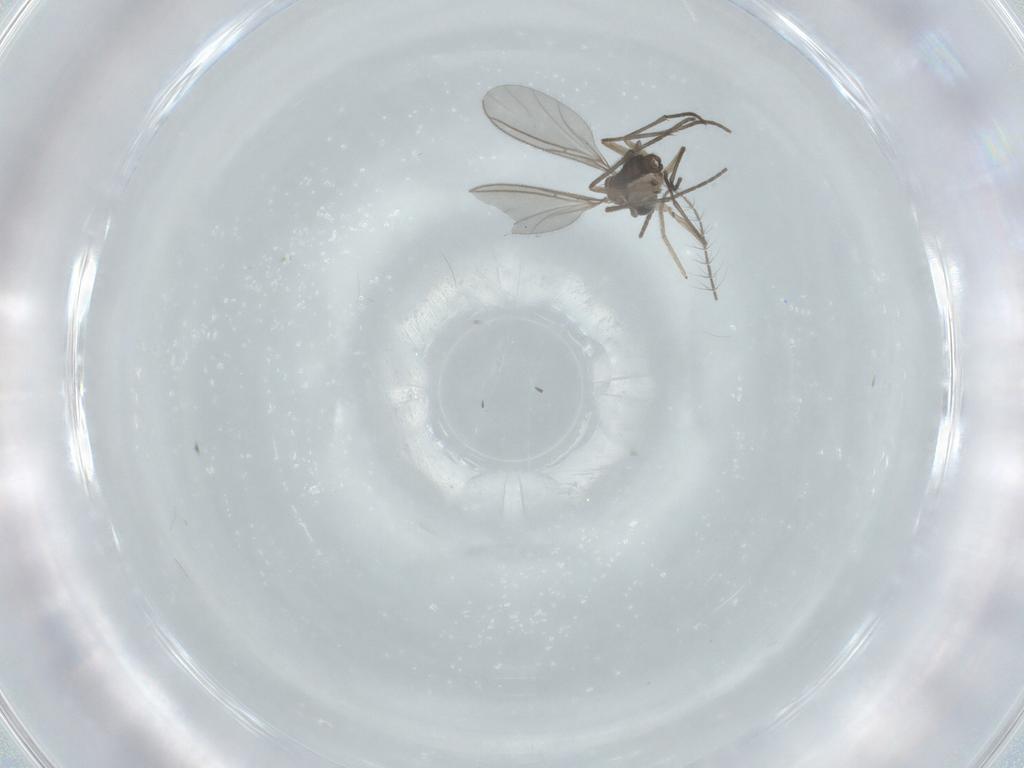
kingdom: Animalia
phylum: Arthropoda
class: Insecta
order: Diptera
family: Sciaridae
